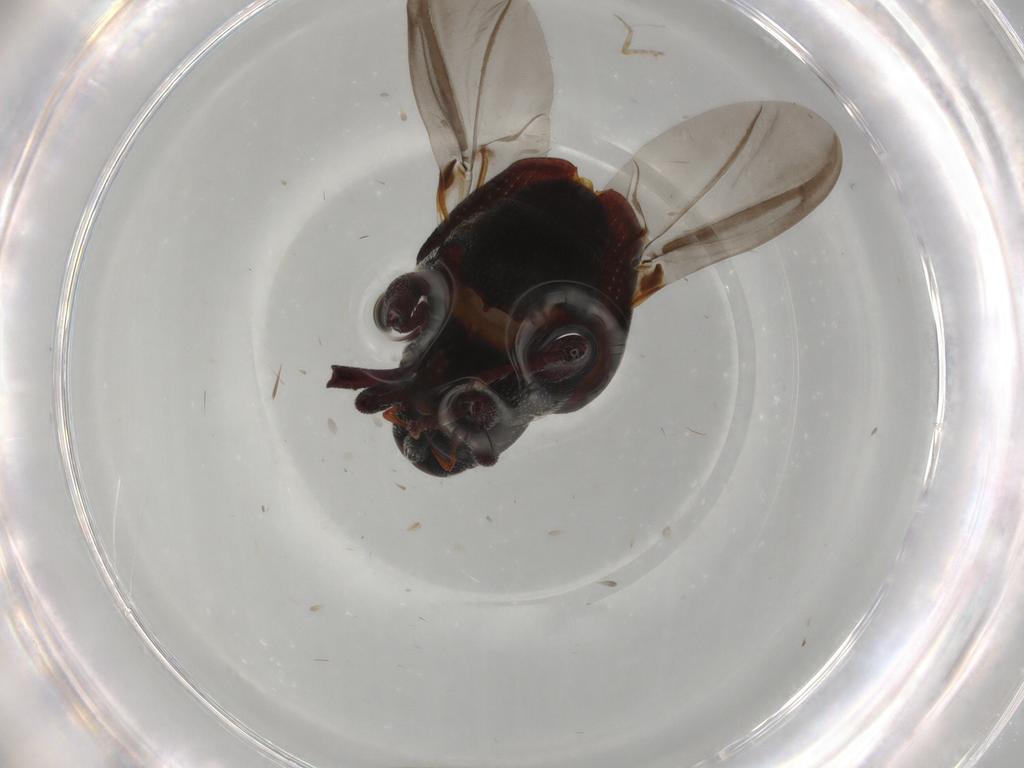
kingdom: Animalia
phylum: Arthropoda
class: Insecta
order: Coleoptera
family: Curculionidae
